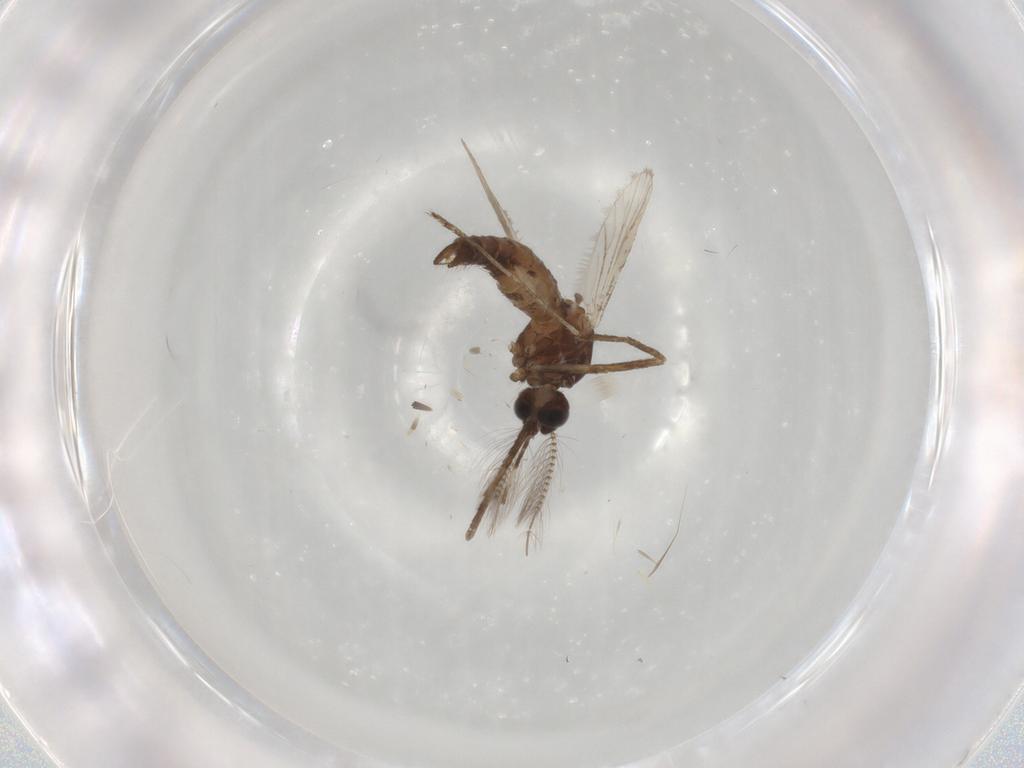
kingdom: Animalia
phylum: Arthropoda
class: Insecta
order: Diptera
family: Culicidae
